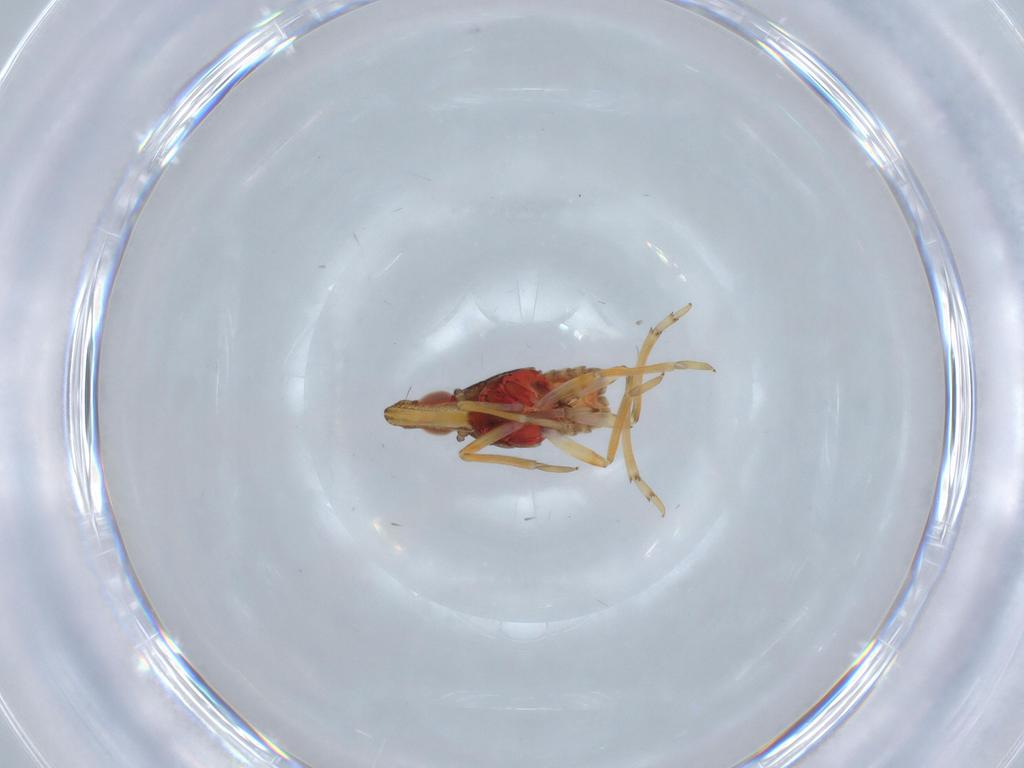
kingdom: Animalia
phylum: Arthropoda
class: Insecta
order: Hemiptera
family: Fulgoroidea_incertae_sedis
